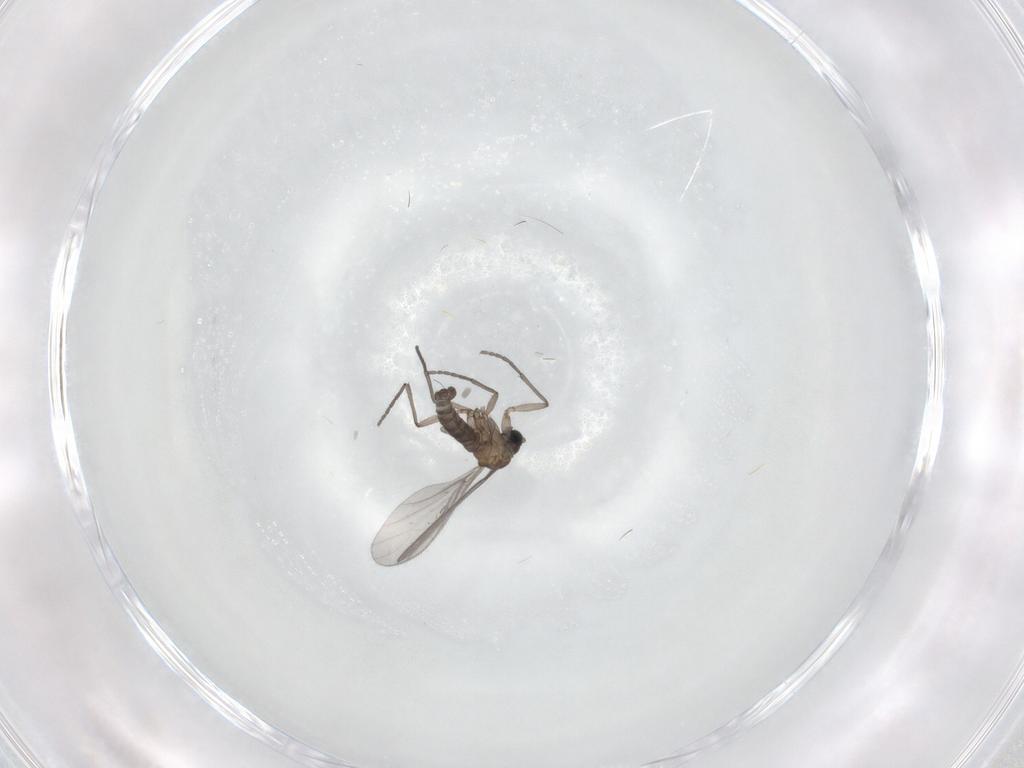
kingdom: Animalia
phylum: Arthropoda
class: Insecta
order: Diptera
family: Sciaridae
